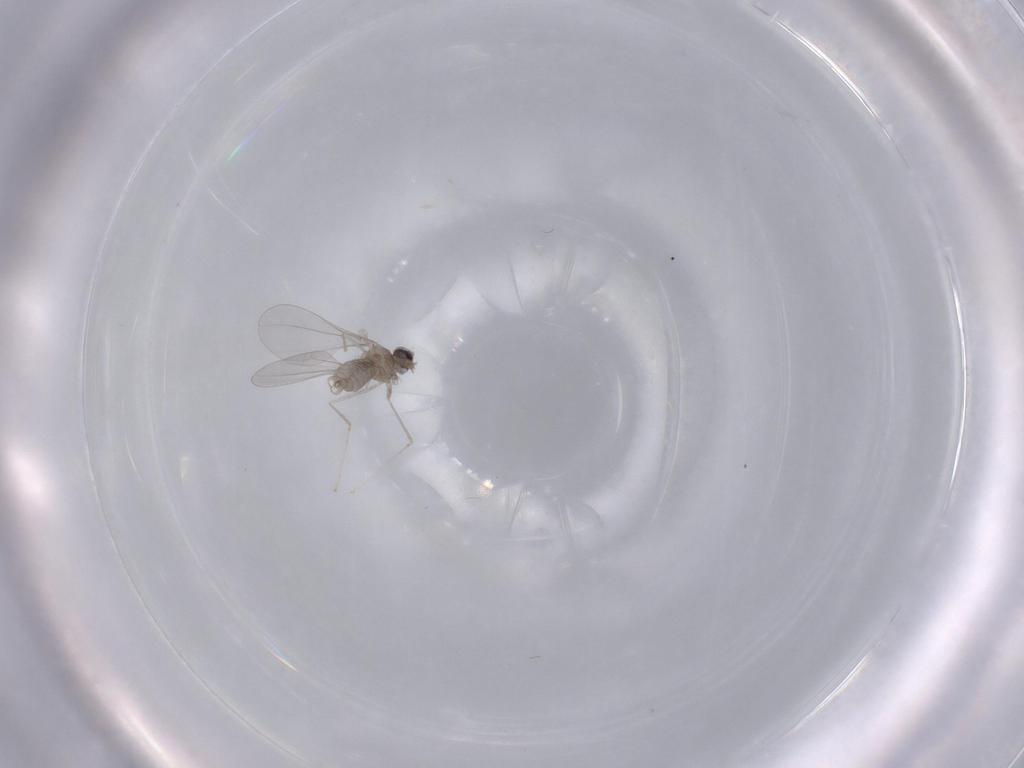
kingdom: Animalia
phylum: Arthropoda
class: Insecta
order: Diptera
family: Cecidomyiidae
